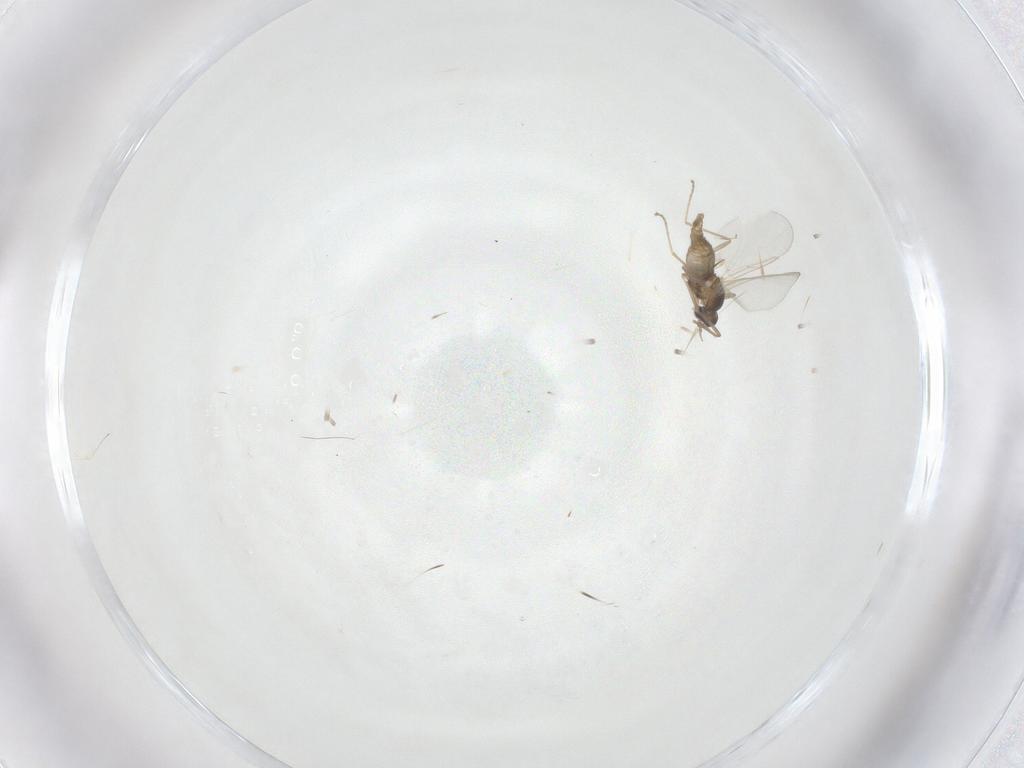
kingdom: Animalia
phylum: Arthropoda
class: Insecta
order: Diptera
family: Cecidomyiidae
